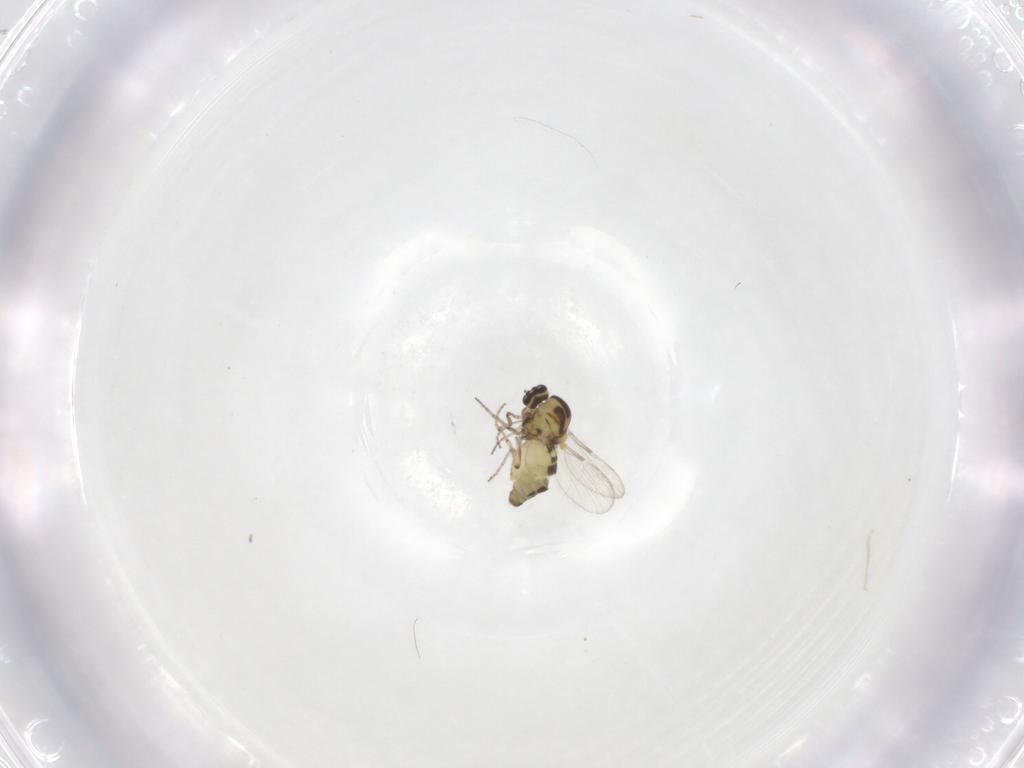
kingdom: Animalia
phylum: Arthropoda
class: Insecta
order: Diptera
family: Ceratopogonidae
